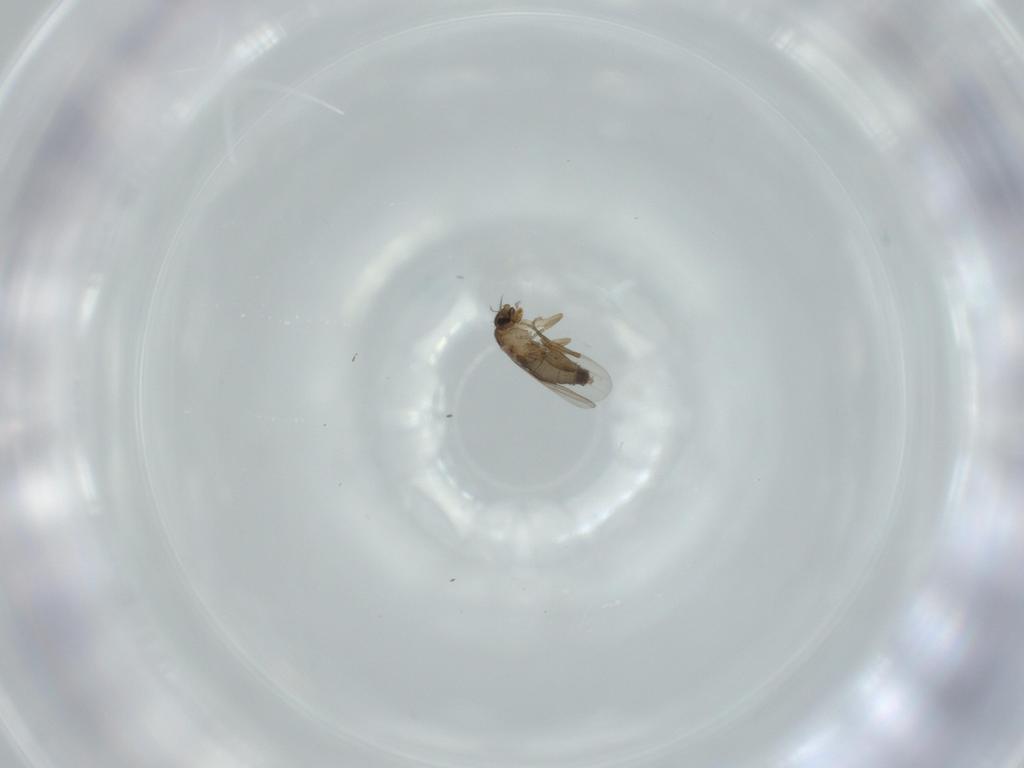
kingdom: Animalia
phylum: Arthropoda
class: Insecta
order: Diptera
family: Phoridae
